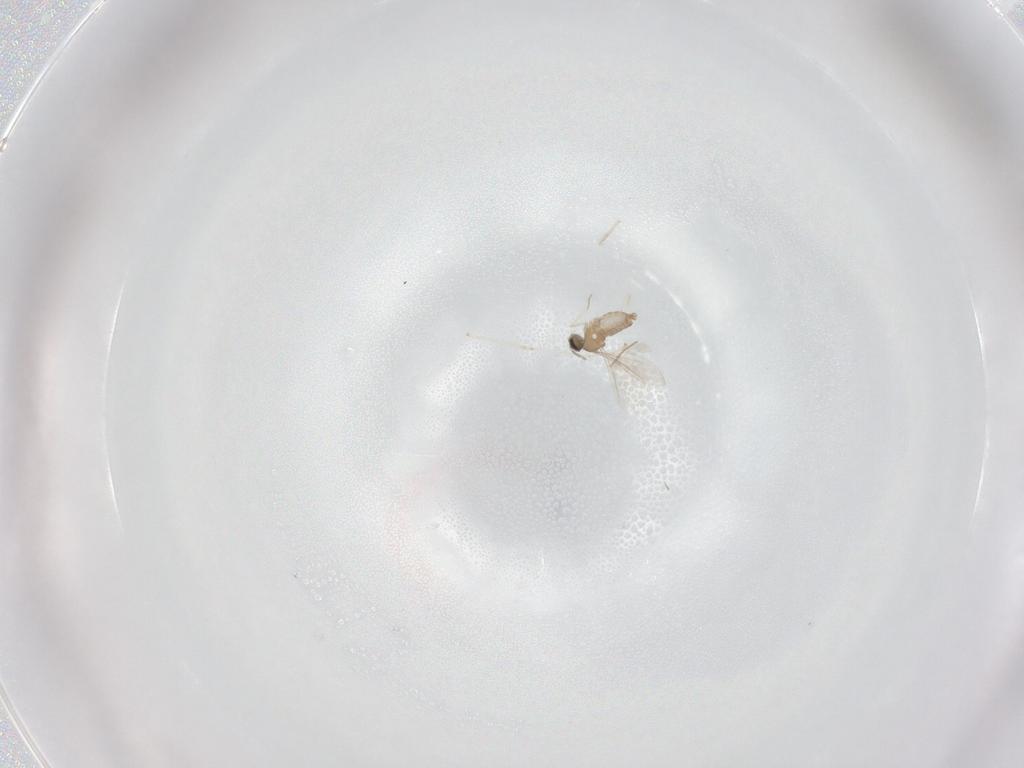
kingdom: Animalia
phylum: Arthropoda
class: Insecta
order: Diptera
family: Cecidomyiidae
